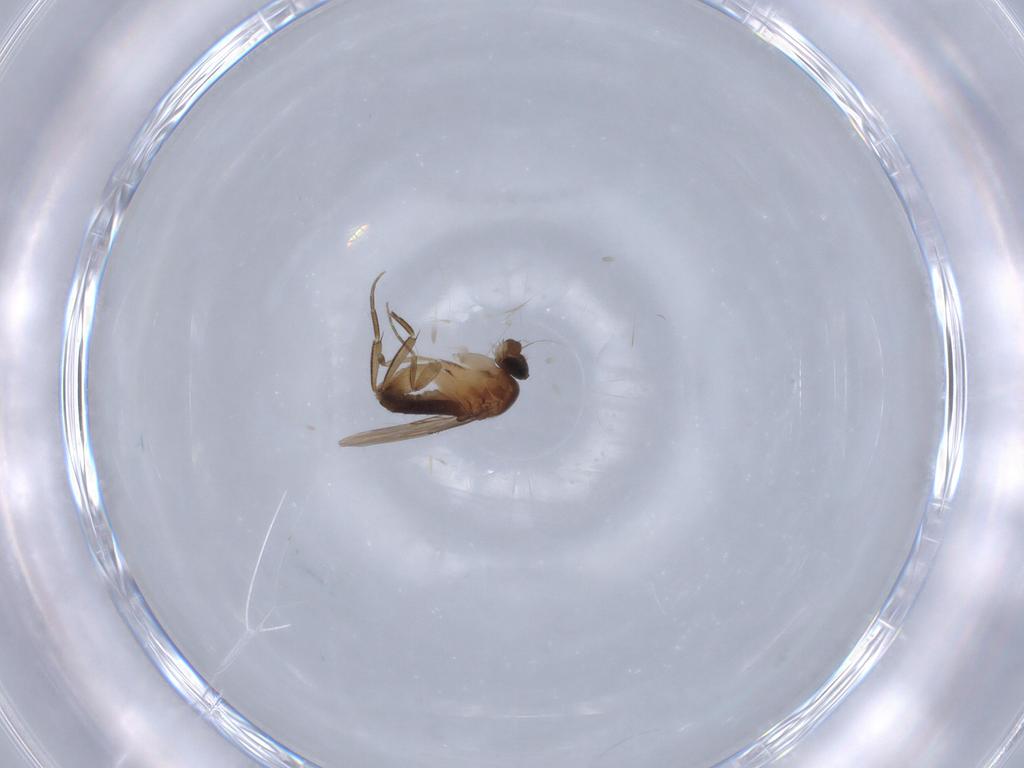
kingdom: Animalia
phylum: Arthropoda
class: Insecta
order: Diptera
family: Phoridae
